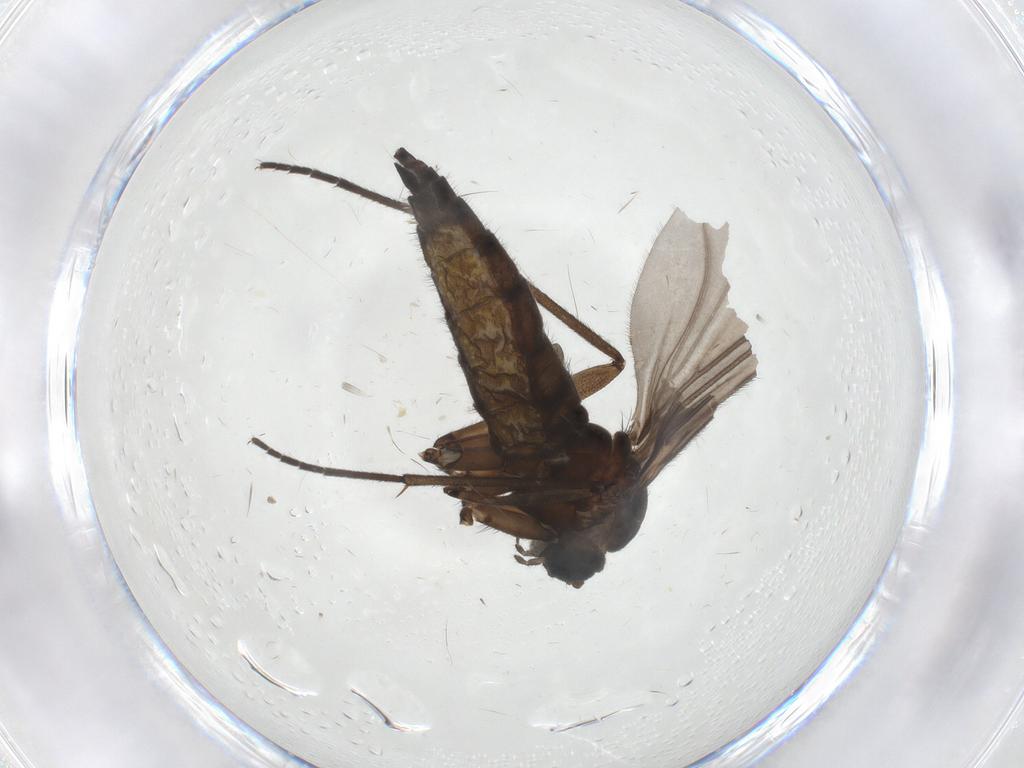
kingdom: Animalia
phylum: Arthropoda
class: Insecta
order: Diptera
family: Sciaridae
